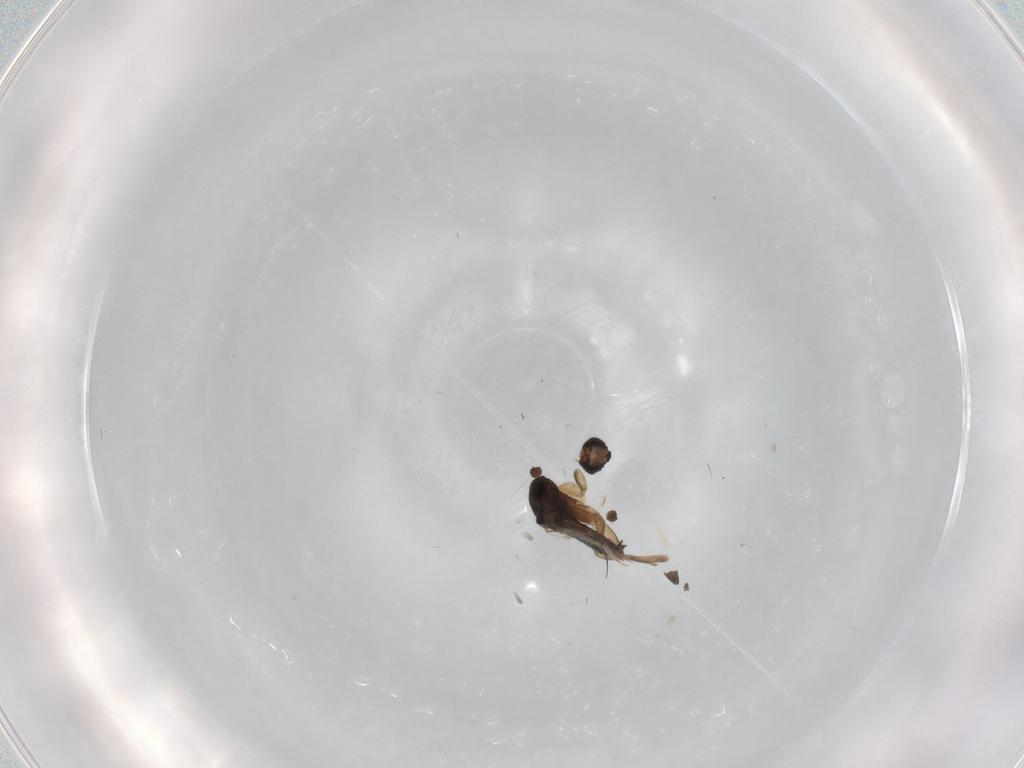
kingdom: Animalia
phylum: Arthropoda
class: Insecta
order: Diptera
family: Phoridae
